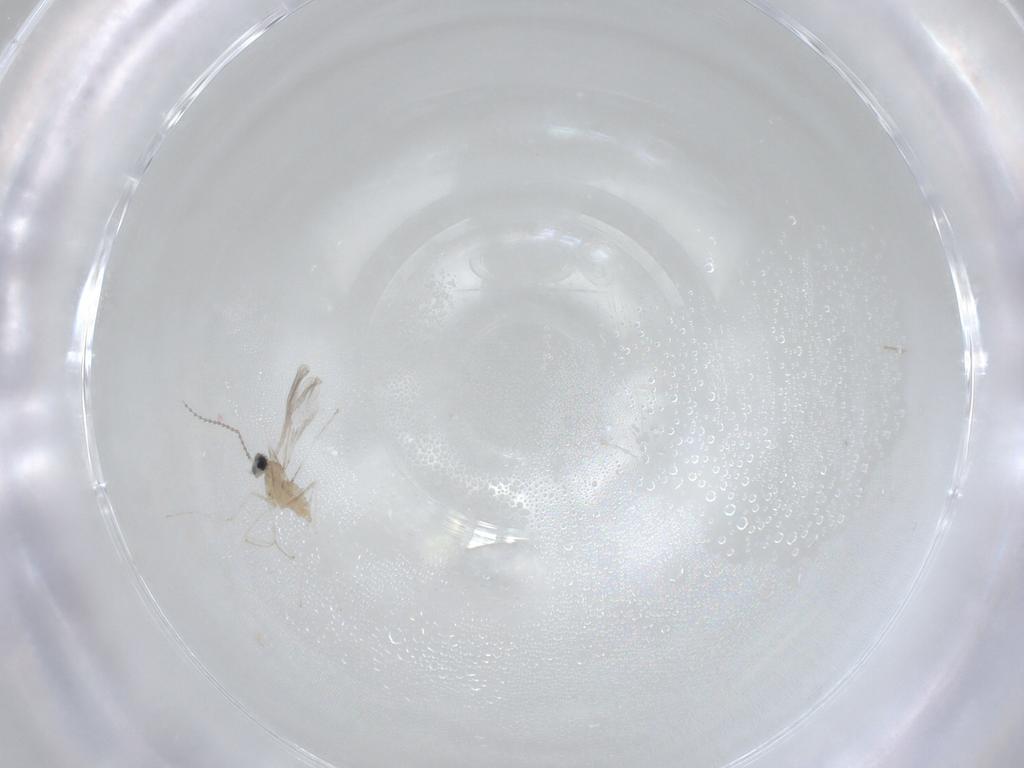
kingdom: Animalia
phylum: Arthropoda
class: Insecta
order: Diptera
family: Cecidomyiidae
